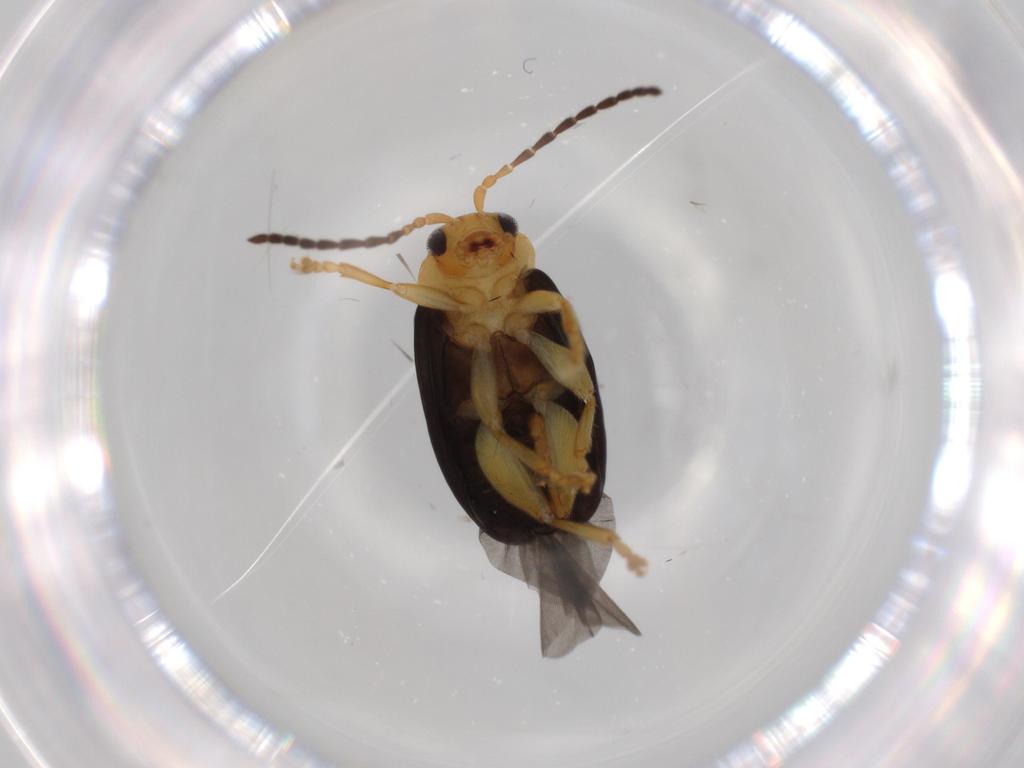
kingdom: Animalia
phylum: Arthropoda
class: Insecta
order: Coleoptera
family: Chrysomelidae
